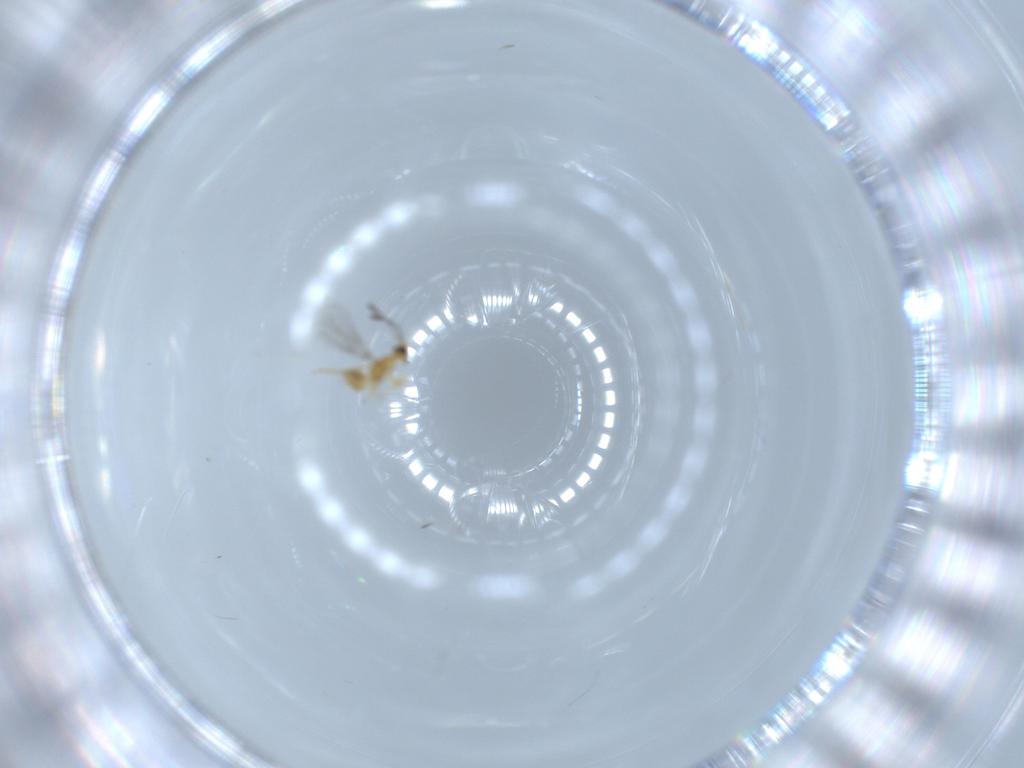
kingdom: Animalia
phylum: Arthropoda
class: Insecta
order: Hymenoptera
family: Mymaridae
